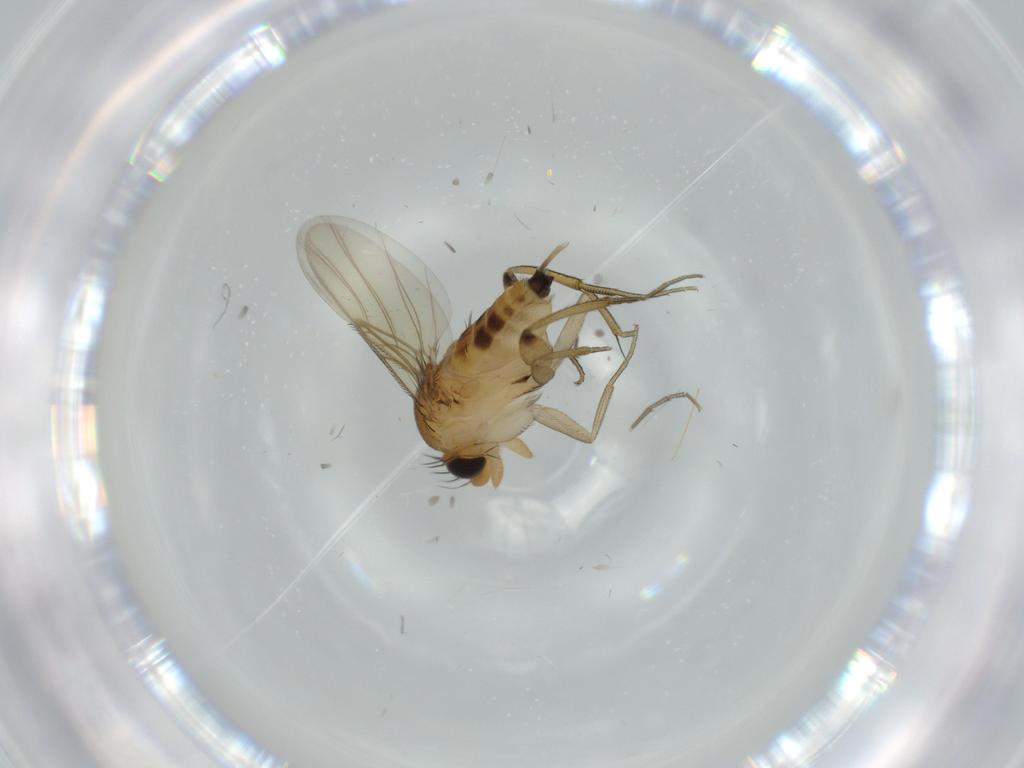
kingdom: Animalia
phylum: Arthropoda
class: Insecta
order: Diptera
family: Phoridae
